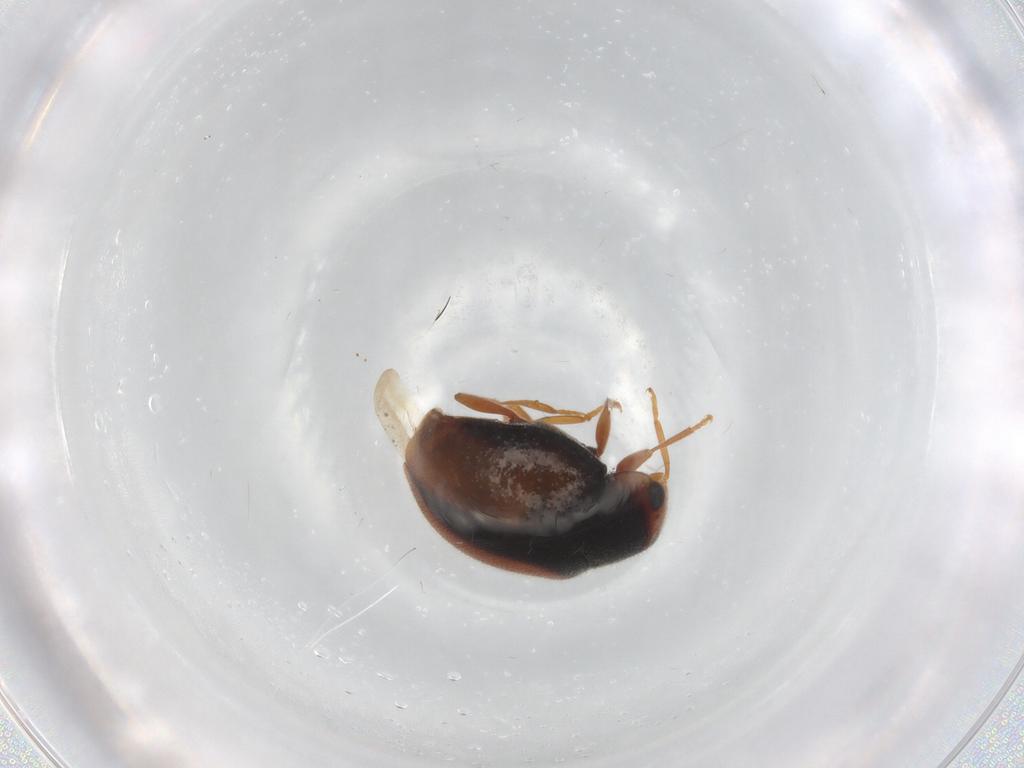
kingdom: Animalia
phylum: Arthropoda
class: Insecta
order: Coleoptera
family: Coccinellidae
